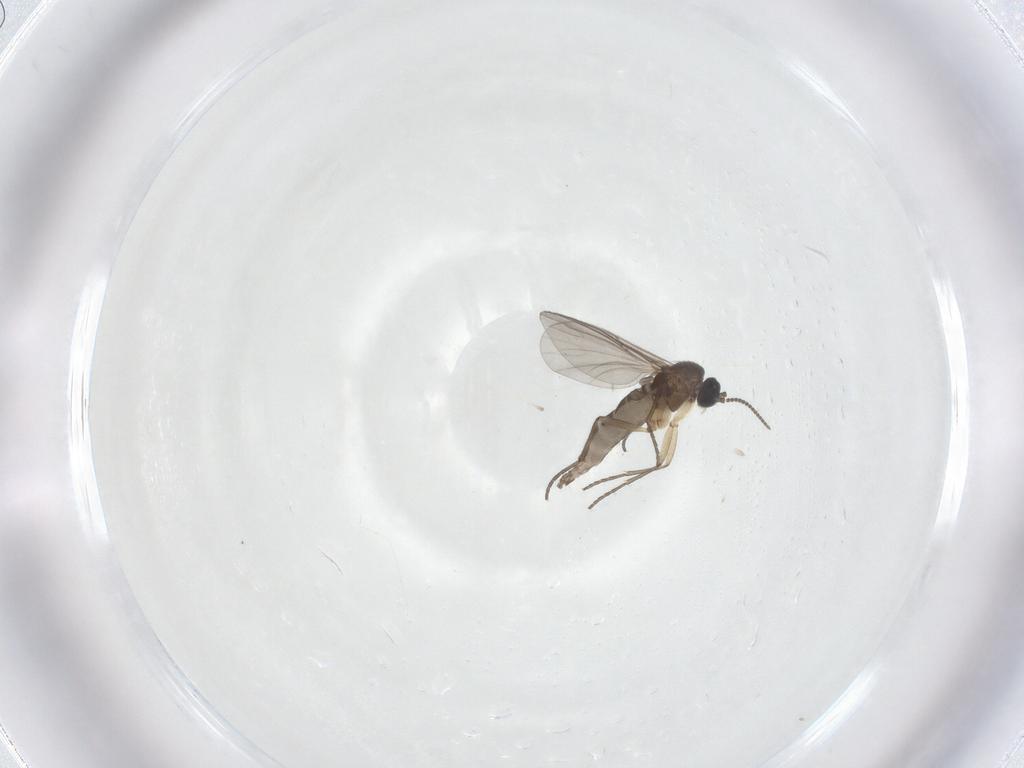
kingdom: Animalia
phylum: Arthropoda
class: Insecta
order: Diptera
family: Sciaridae
